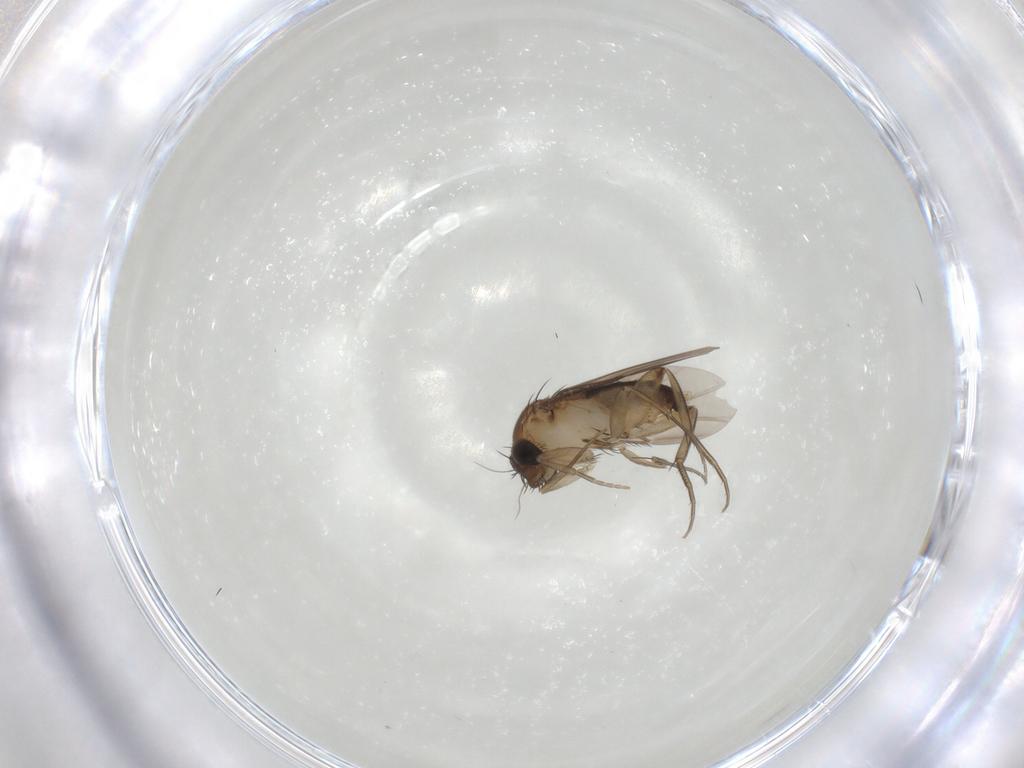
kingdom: Animalia
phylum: Arthropoda
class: Insecta
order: Diptera
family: Phoridae
